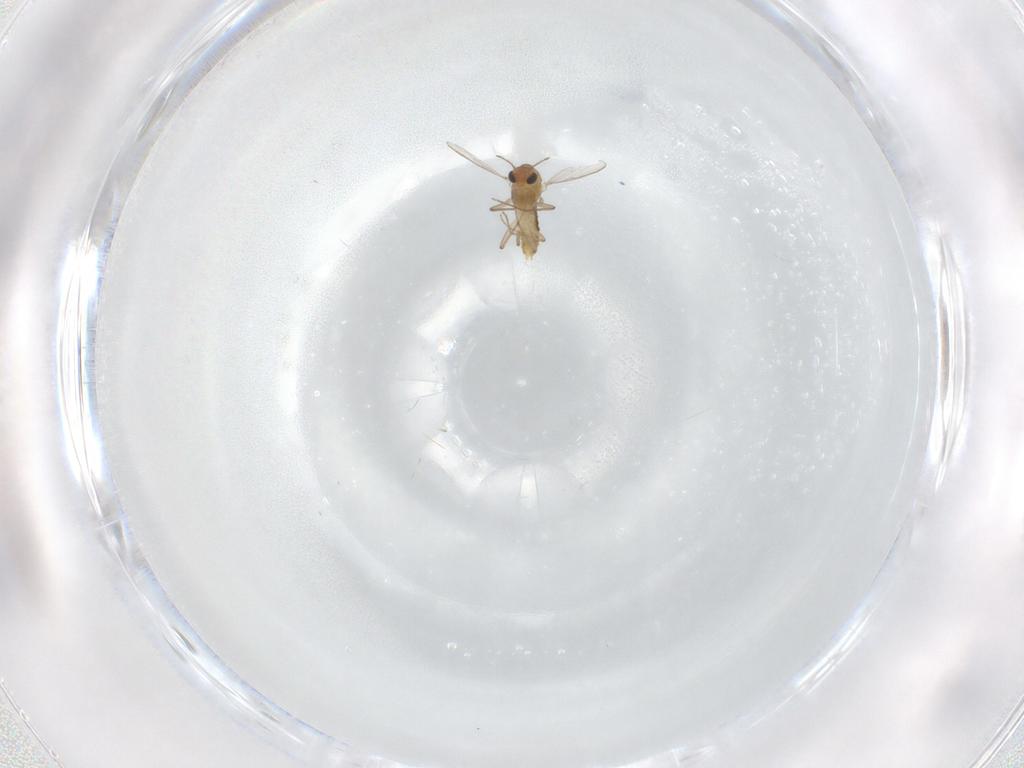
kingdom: Animalia
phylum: Arthropoda
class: Insecta
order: Diptera
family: Chironomidae
